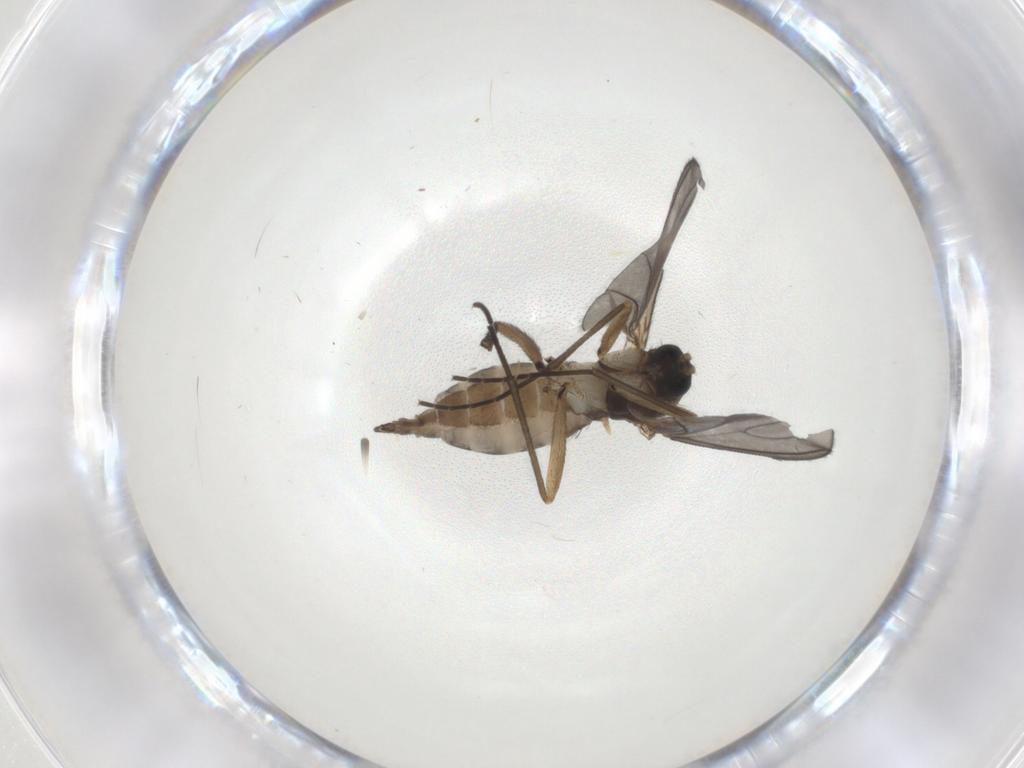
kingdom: Animalia
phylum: Arthropoda
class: Insecta
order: Diptera
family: Sciaridae
